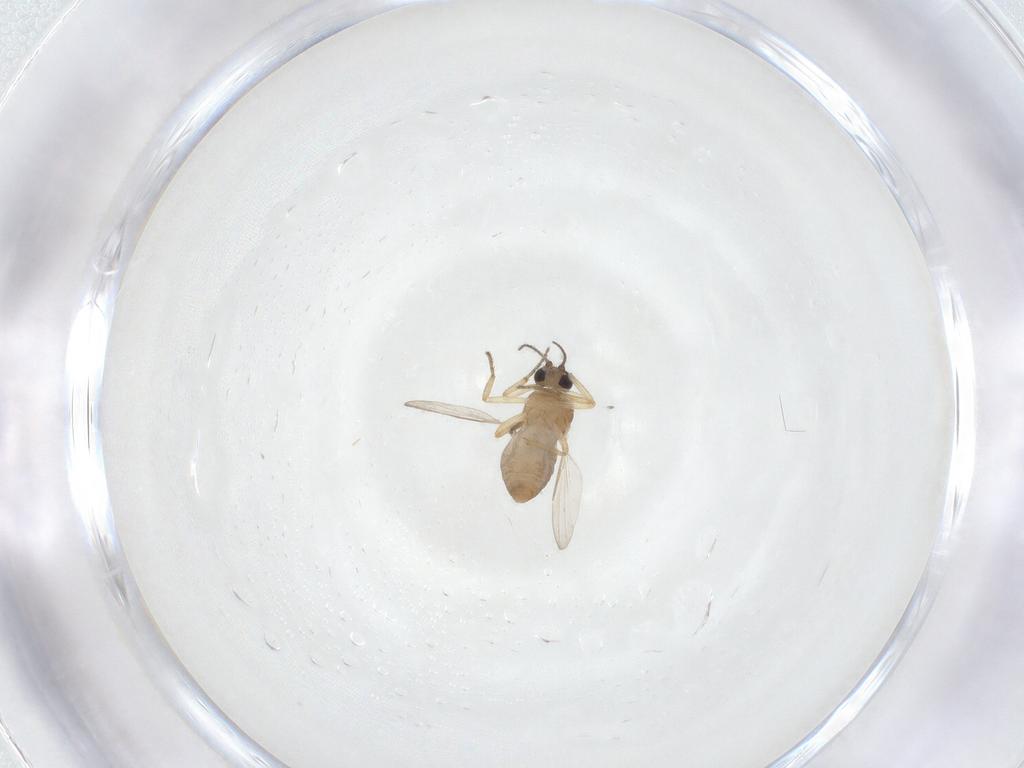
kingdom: Animalia
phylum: Arthropoda
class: Insecta
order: Diptera
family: Ceratopogonidae
